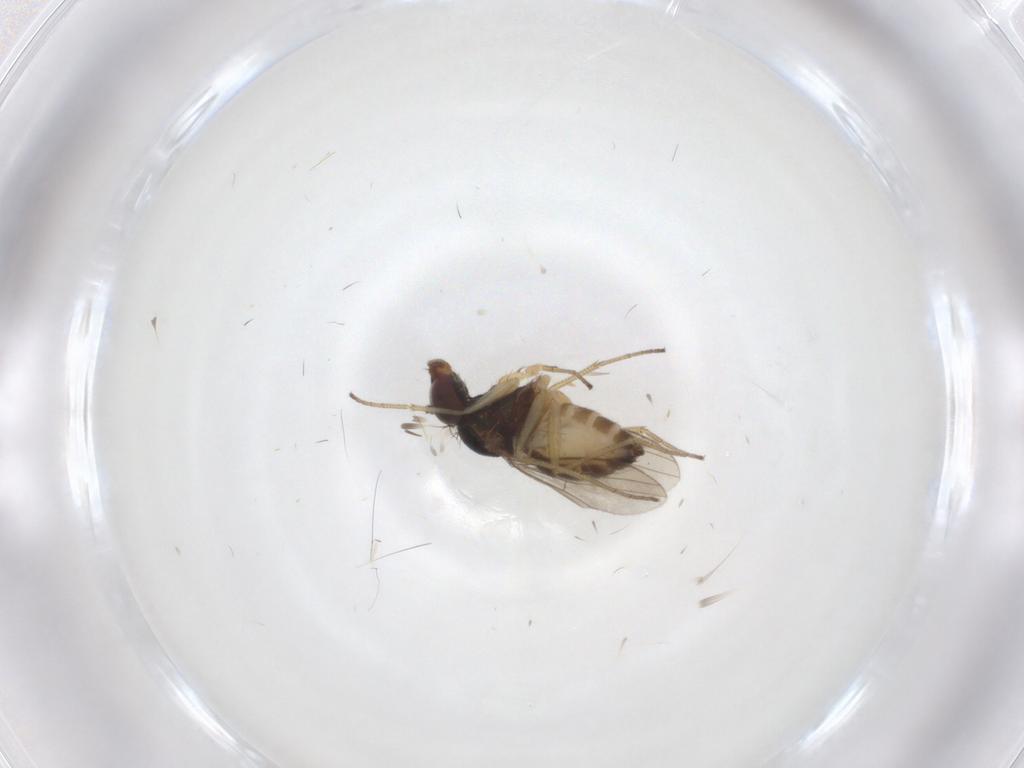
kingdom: Animalia
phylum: Arthropoda
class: Insecta
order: Diptera
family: Dolichopodidae
